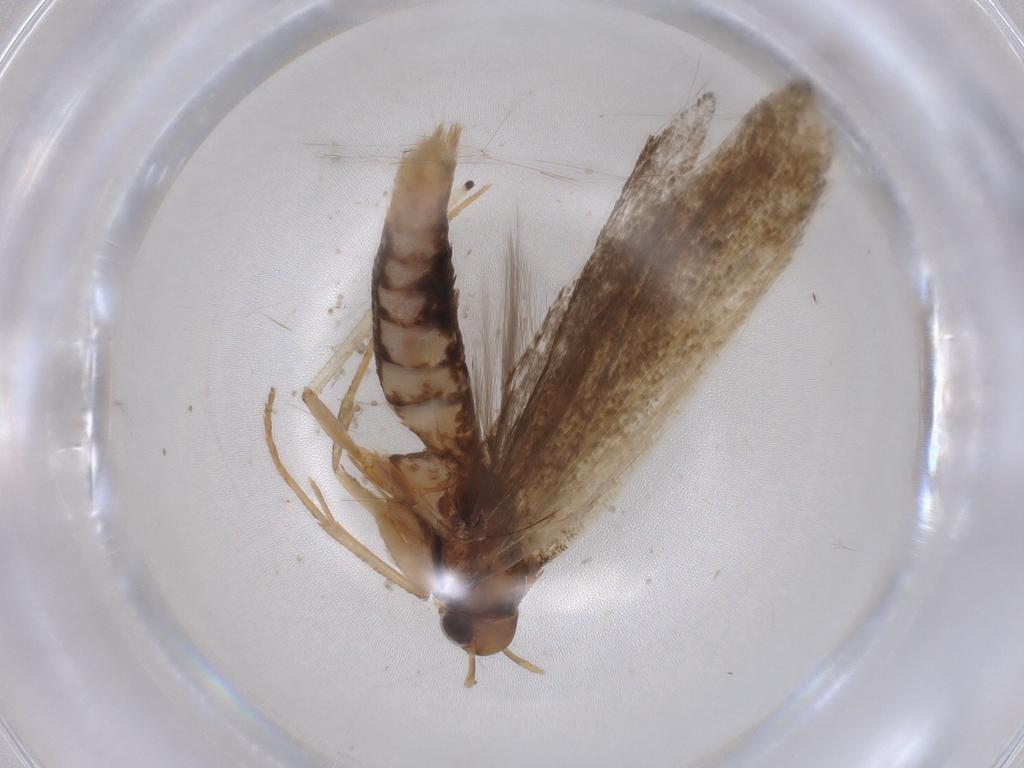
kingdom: Animalia
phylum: Arthropoda
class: Insecta
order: Lepidoptera
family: Gelechiidae
